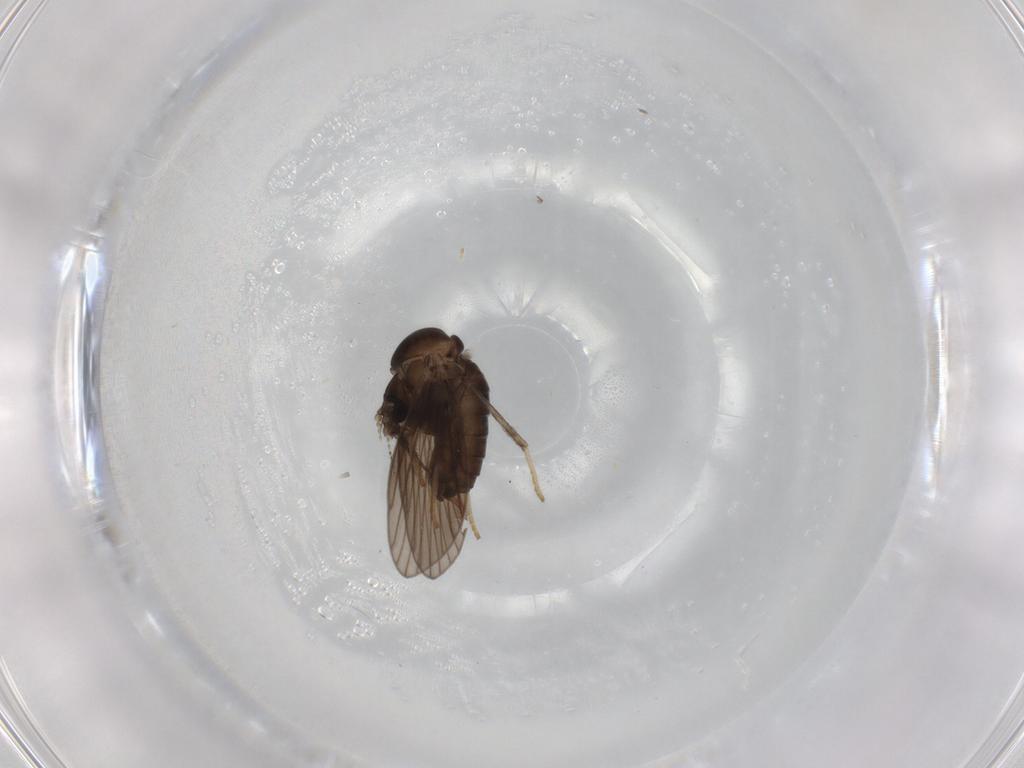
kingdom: Animalia
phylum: Arthropoda
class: Insecta
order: Diptera
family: Psychodidae
